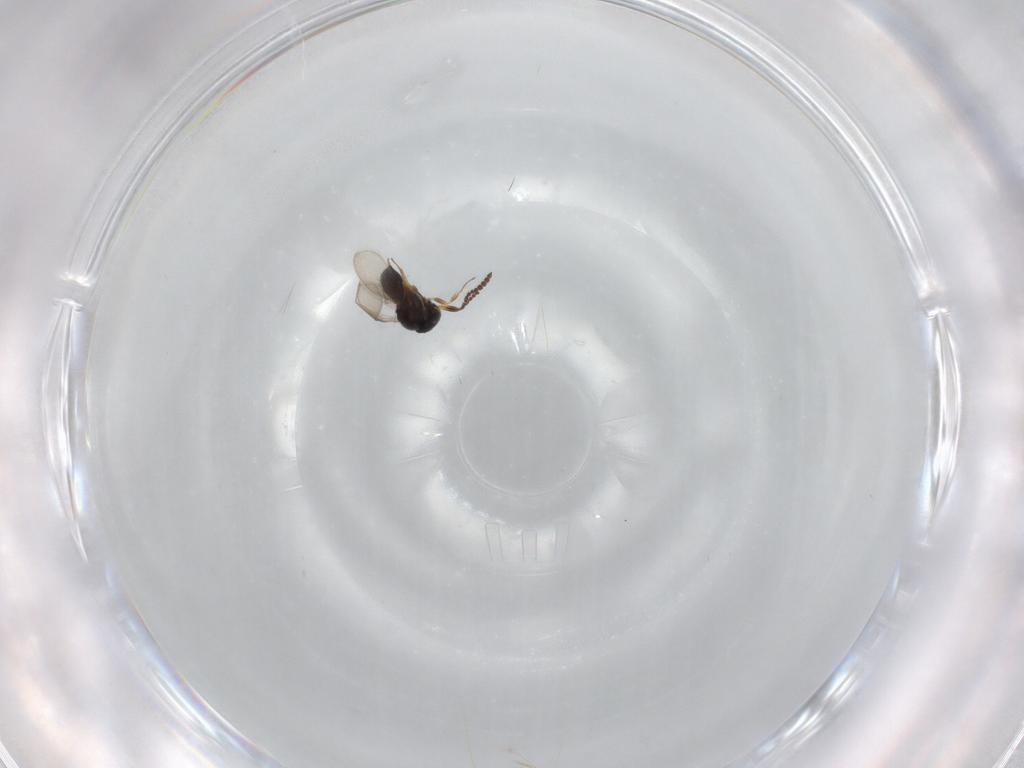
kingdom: Animalia
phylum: Arthropoda
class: Insecta
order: Hymenoptera
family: Scelionidae
